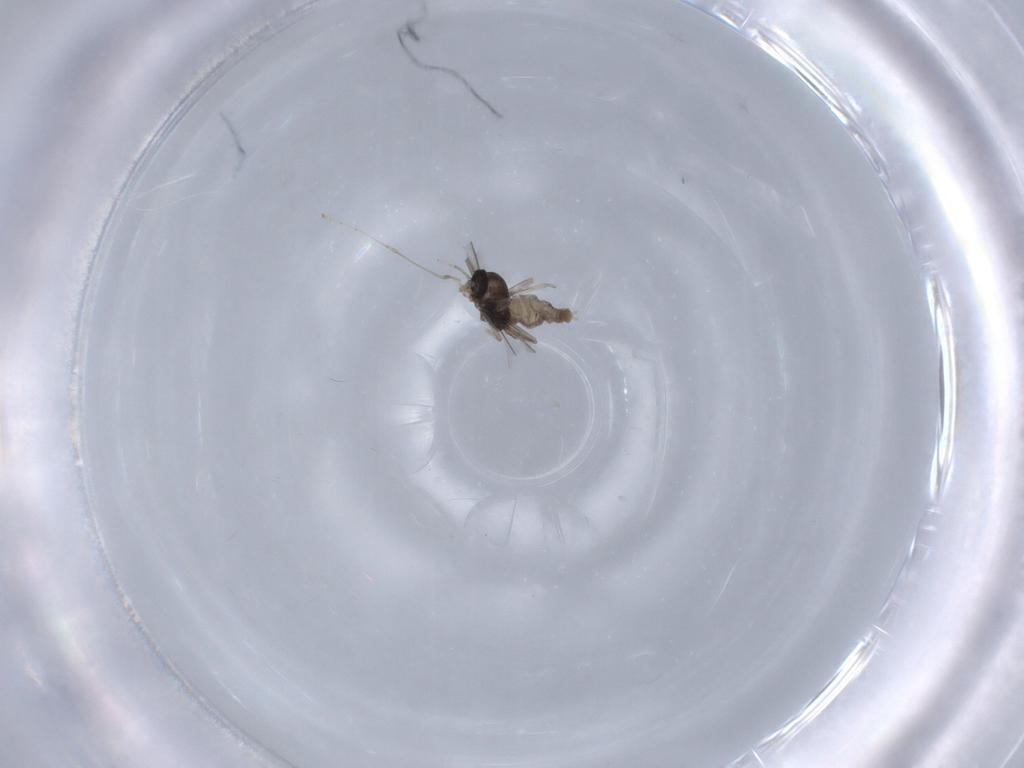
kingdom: Animalia
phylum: Arthropoda
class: Insecta
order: Diptera
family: Cecidomyiidae
